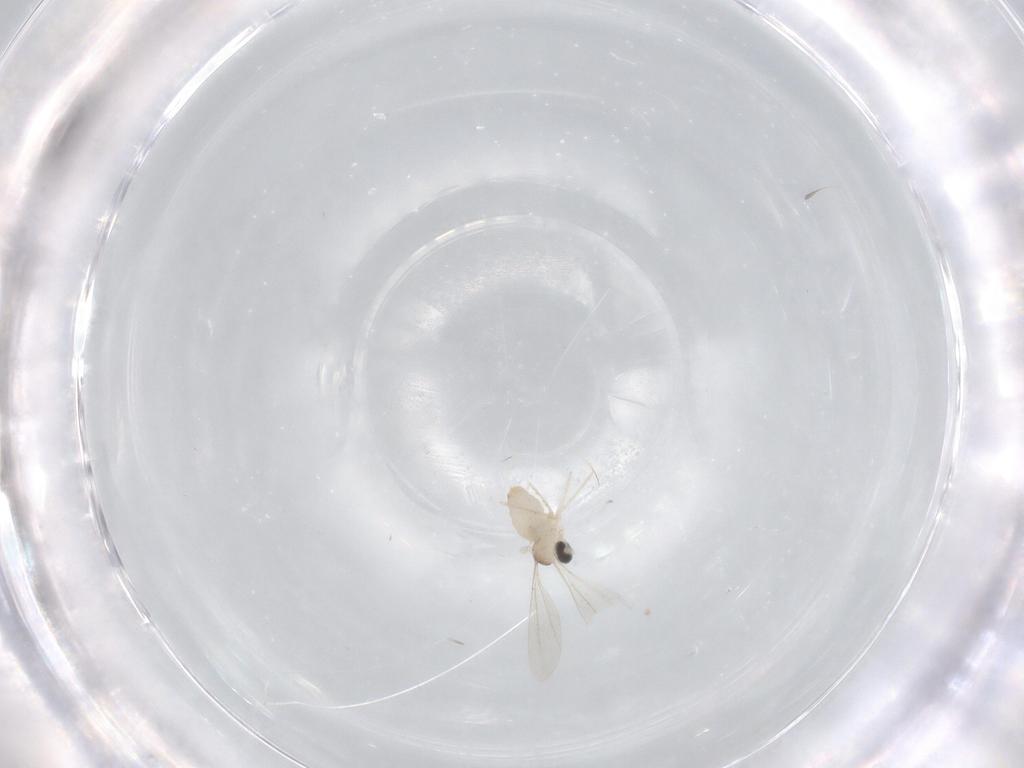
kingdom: Animalia
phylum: Arthropoda
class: Insecta
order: Diptera
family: Cecidomyiidae
